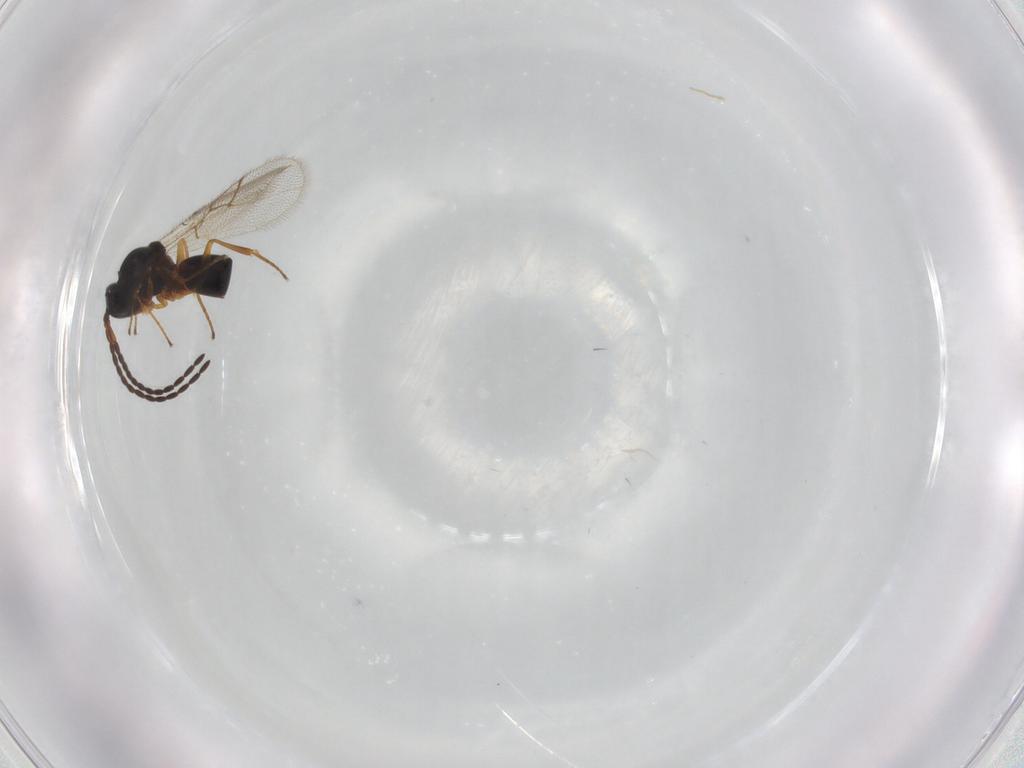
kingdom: Animalia
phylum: Arthropoda
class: Insecta
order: Hymenoptera
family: Figitidae
